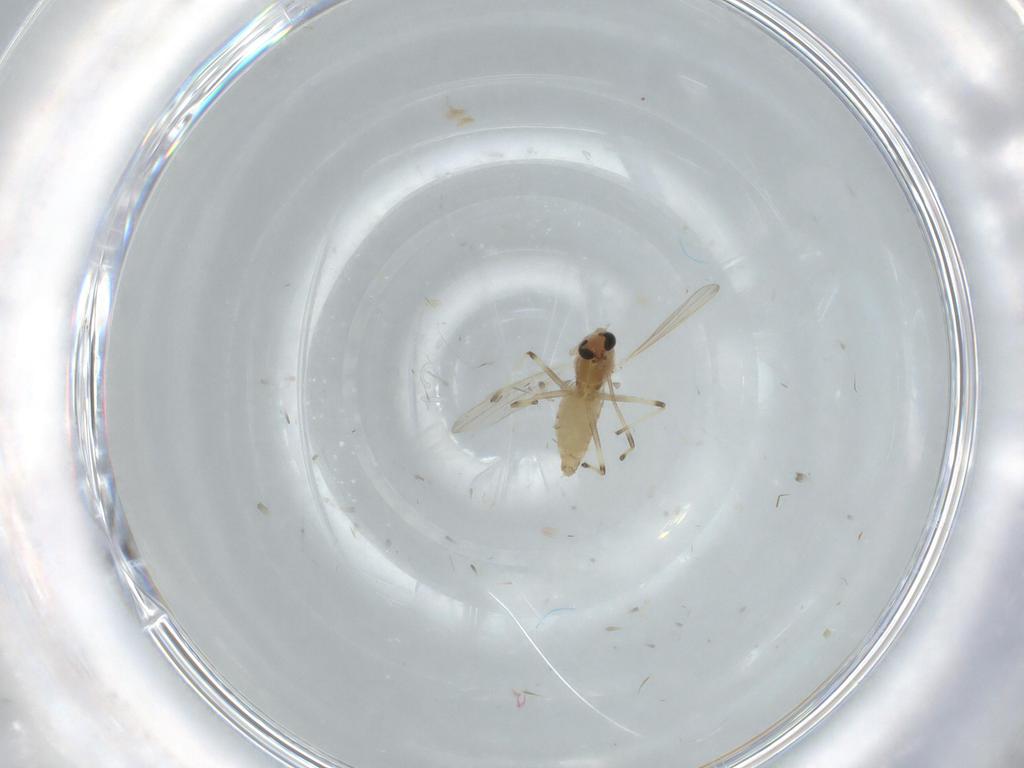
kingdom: Animalia
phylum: Arthropoda
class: Insecta
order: Diptera
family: Chironomidae
